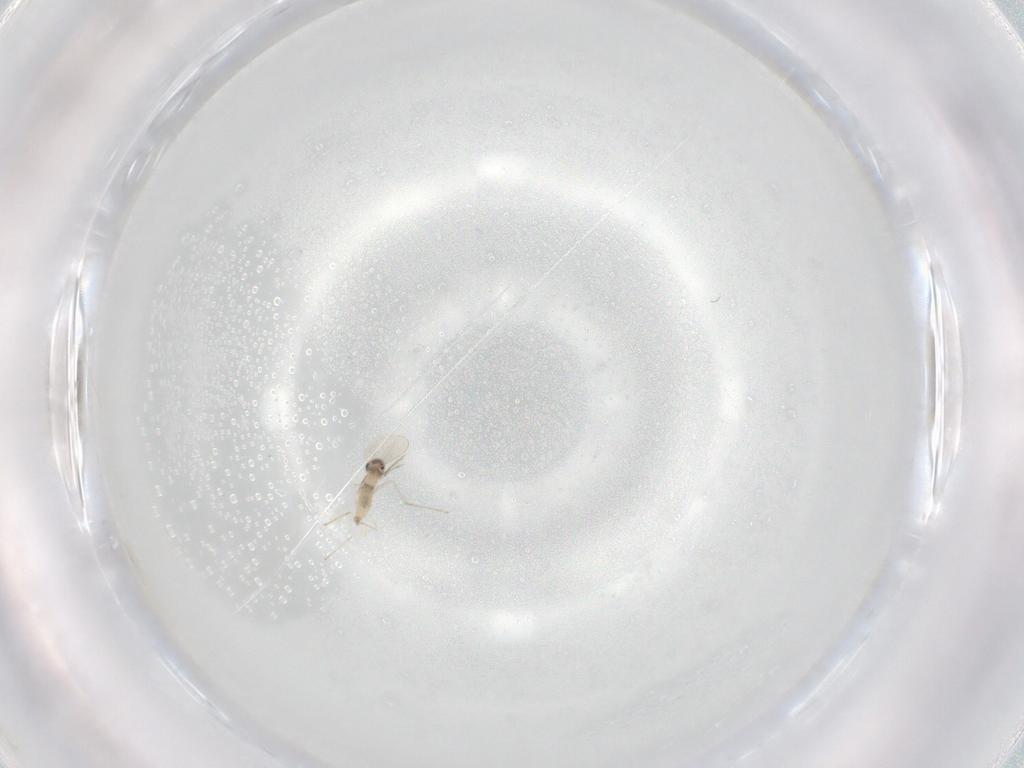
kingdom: Animalia
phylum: Arthropoda
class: Insecta
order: Diptera
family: Cecidomyiidae
